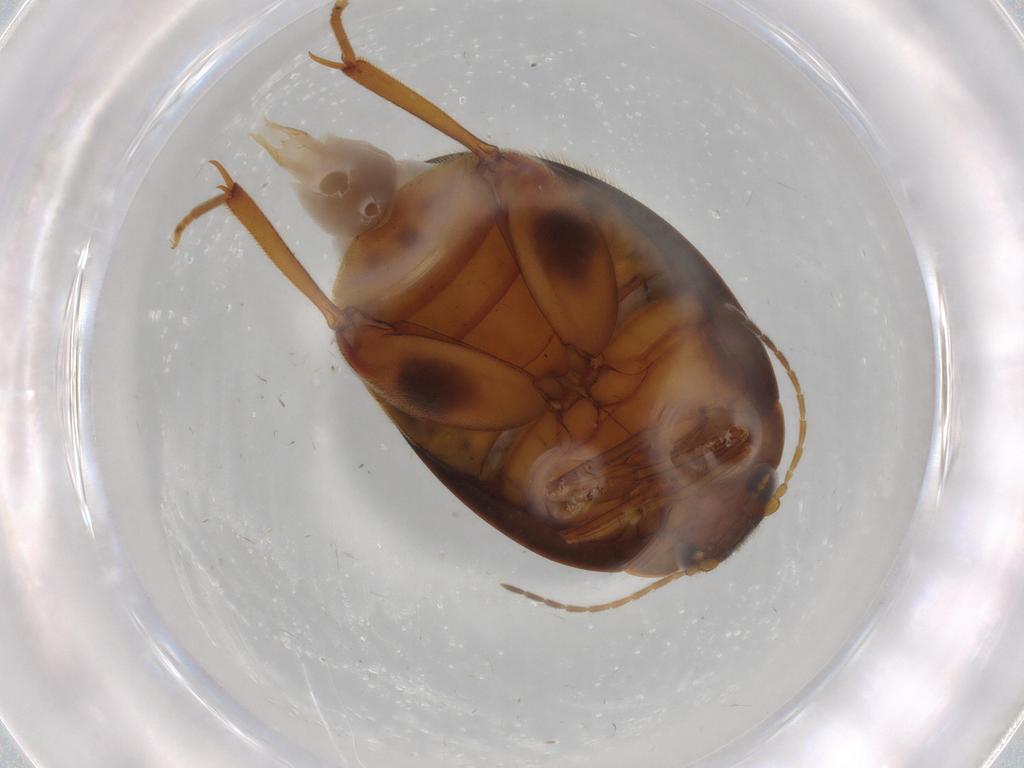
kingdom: Animalia
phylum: Arthropoda
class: Insecta
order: Coleoptera
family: Scirtidae
